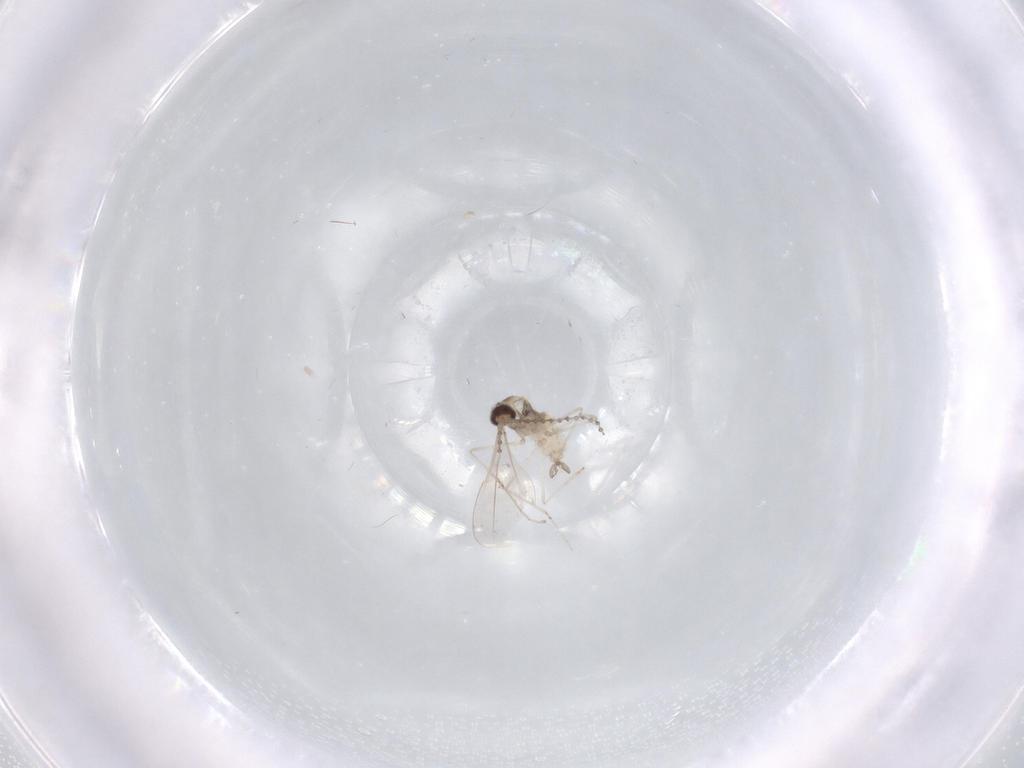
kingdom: Animalia
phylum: Arthropoda
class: Insecta
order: Diptera
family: Cecidomyiidae
